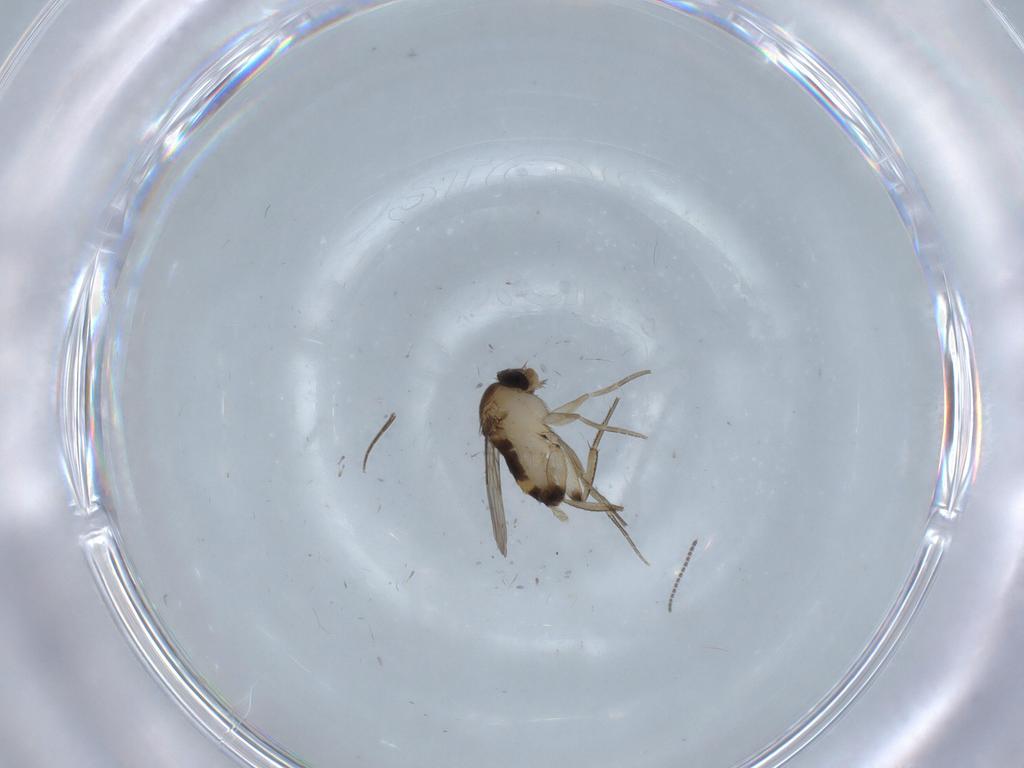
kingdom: Animalia
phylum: Arthropoda
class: Insecta
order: Diptera
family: Phoridae
